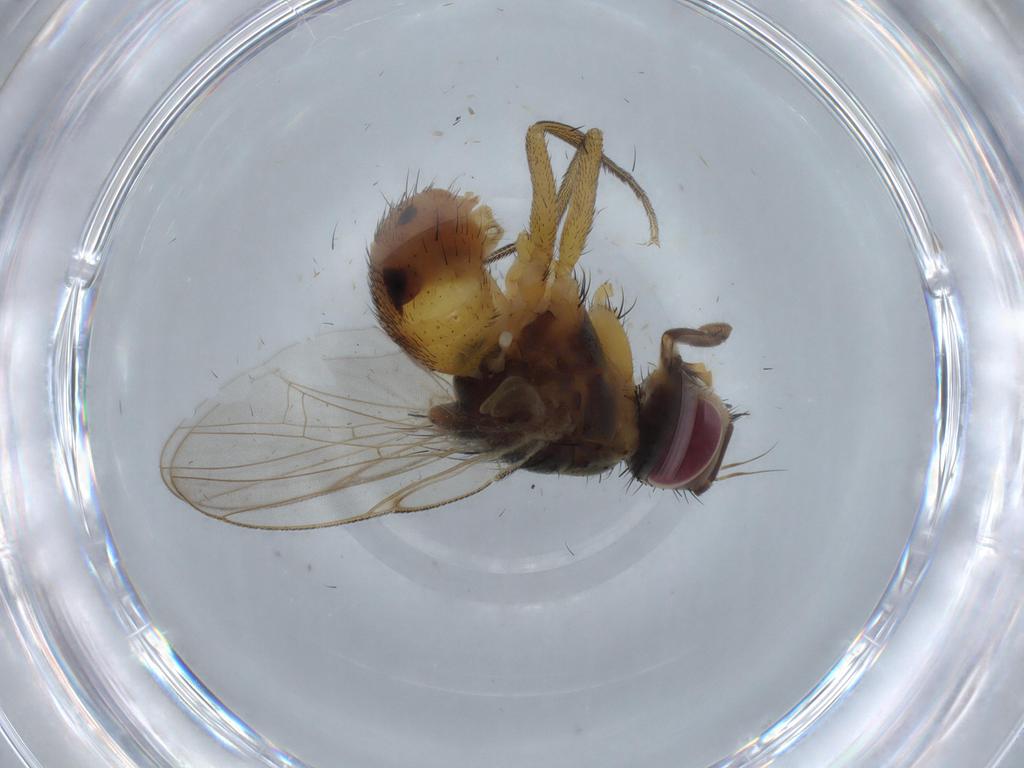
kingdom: Animalia
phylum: Arthropoda
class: Insecta
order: Diptera
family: Muscidae
